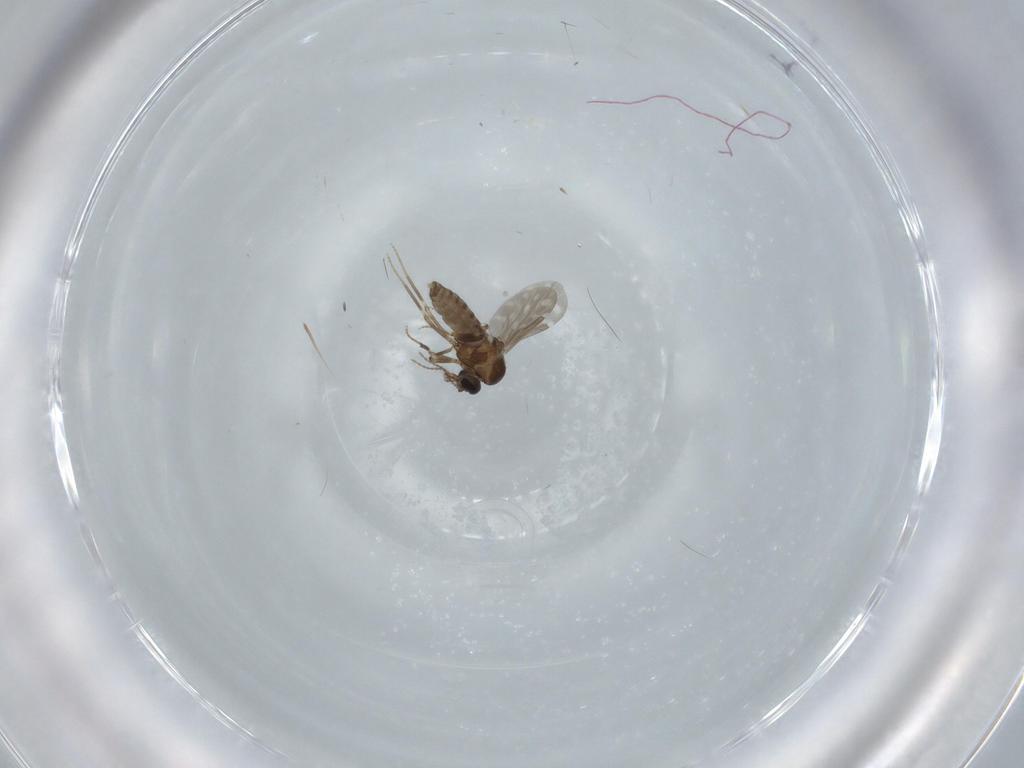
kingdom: Animalia
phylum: Arthropoda
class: Insecta
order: Diptera
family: Ceratopogonidae
